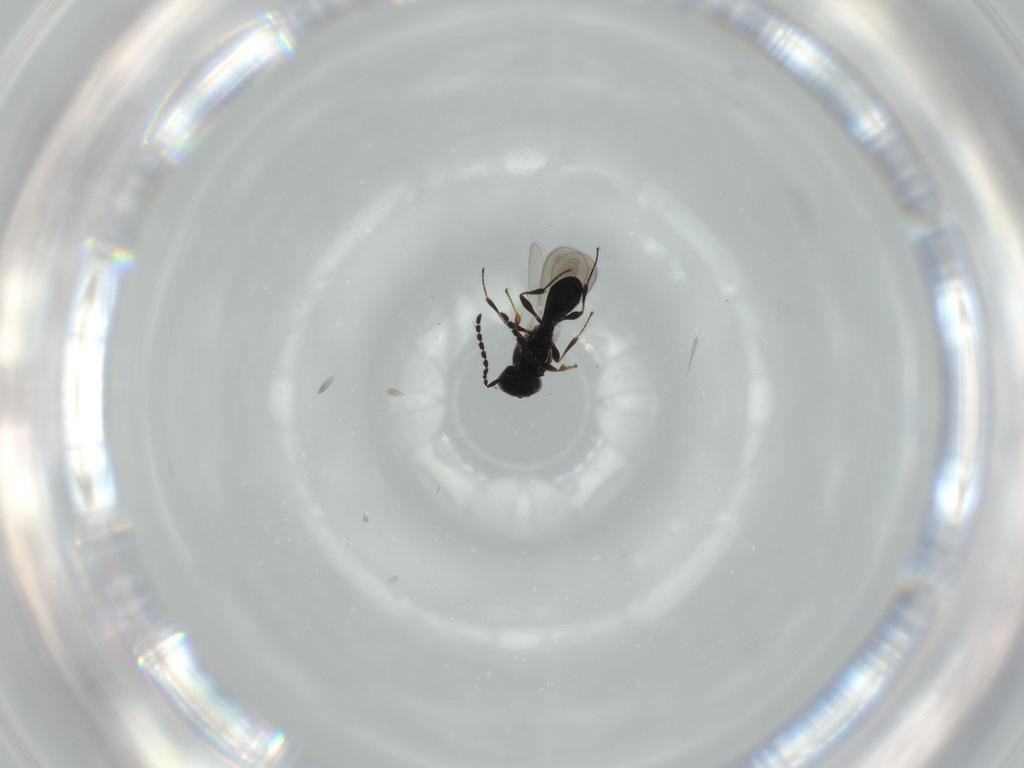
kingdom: Animalia
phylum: Arthropoda
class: Insecta
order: Hymenoptera
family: Platygastridae
